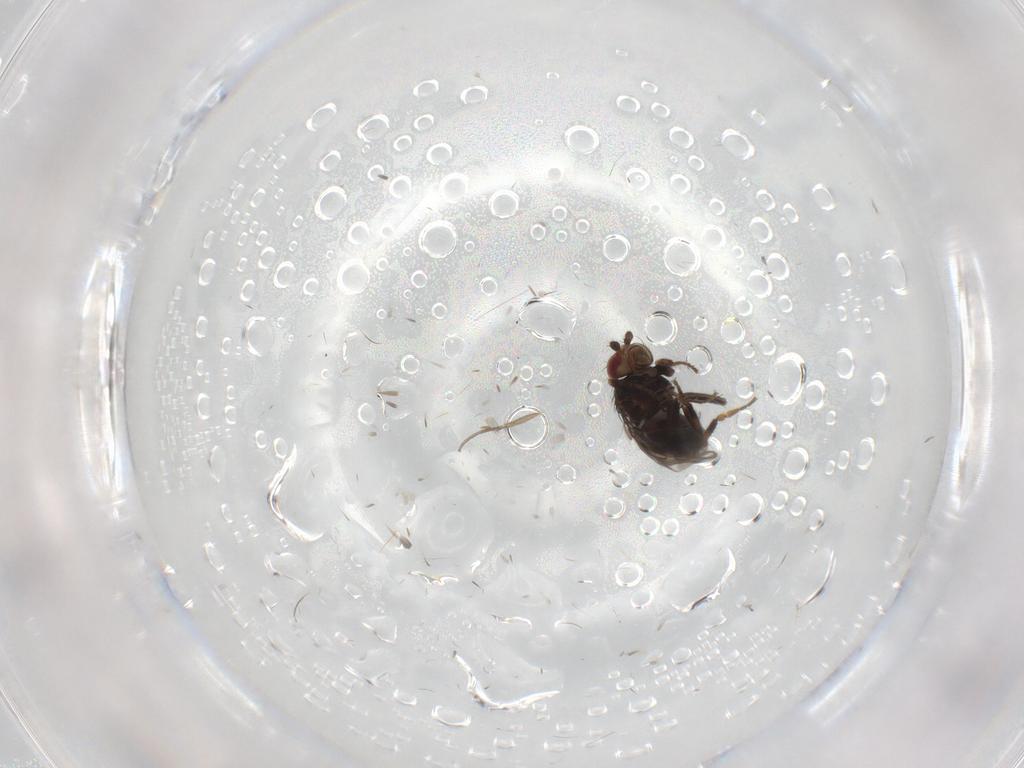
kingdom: Animalia
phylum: Arthropoda
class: Insecta
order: Diptera
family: Sphaeroceridae
